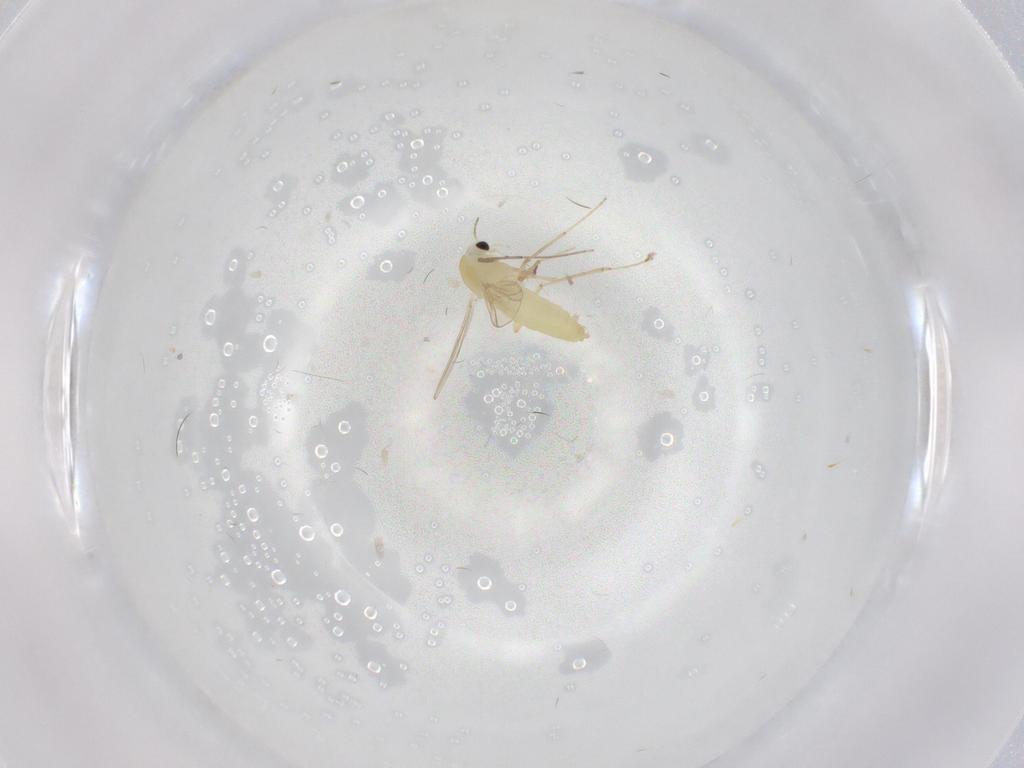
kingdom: Animalia
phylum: Arthropoda
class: Insecta
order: Diptera
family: Chironomidae
